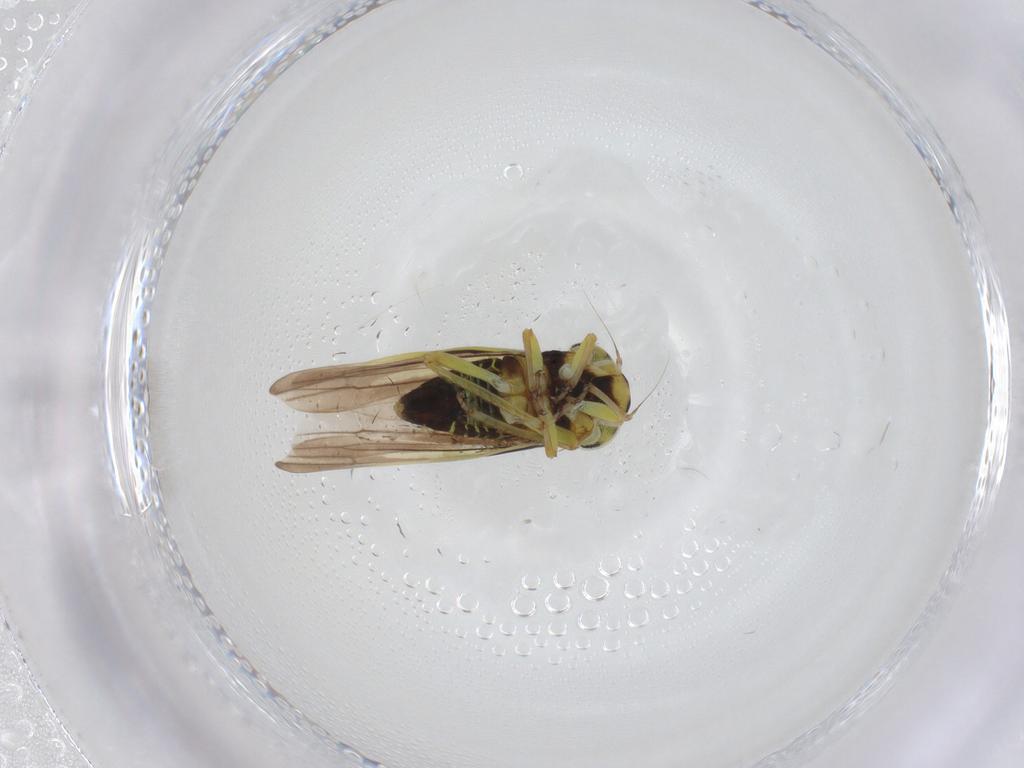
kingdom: Animalia
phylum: Arthropoda
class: Insecta
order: Hemiptera
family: Cicadellidae
